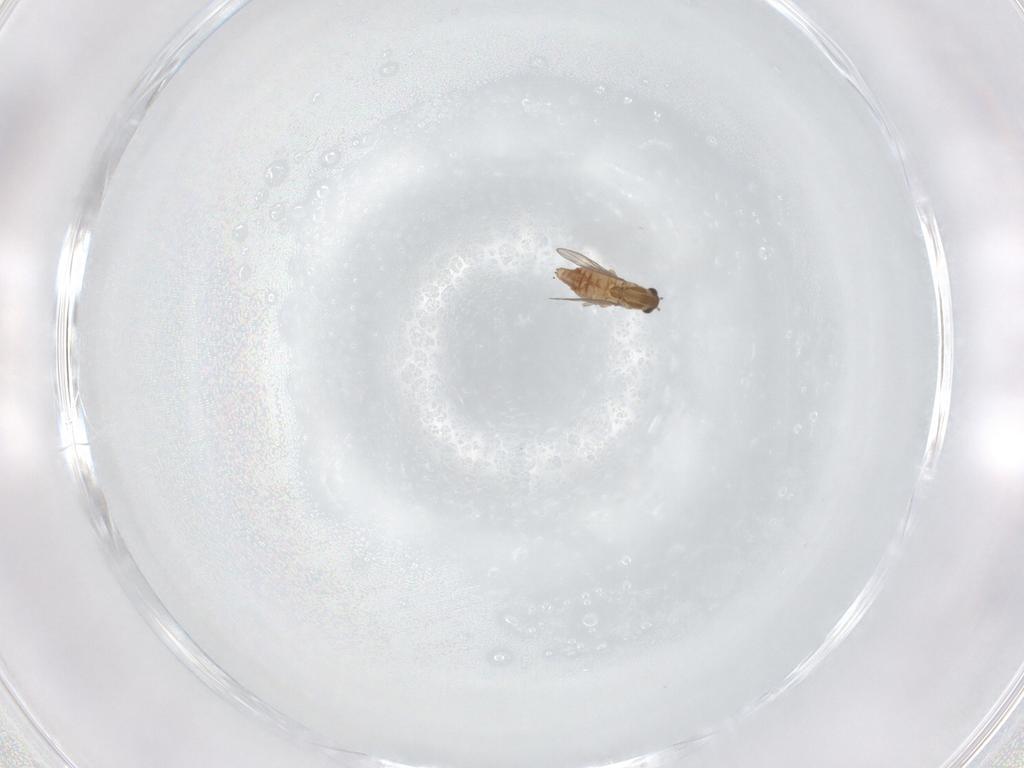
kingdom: Animalia
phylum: Arthropoda
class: Insecta
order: Diptera
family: Chironomidae
